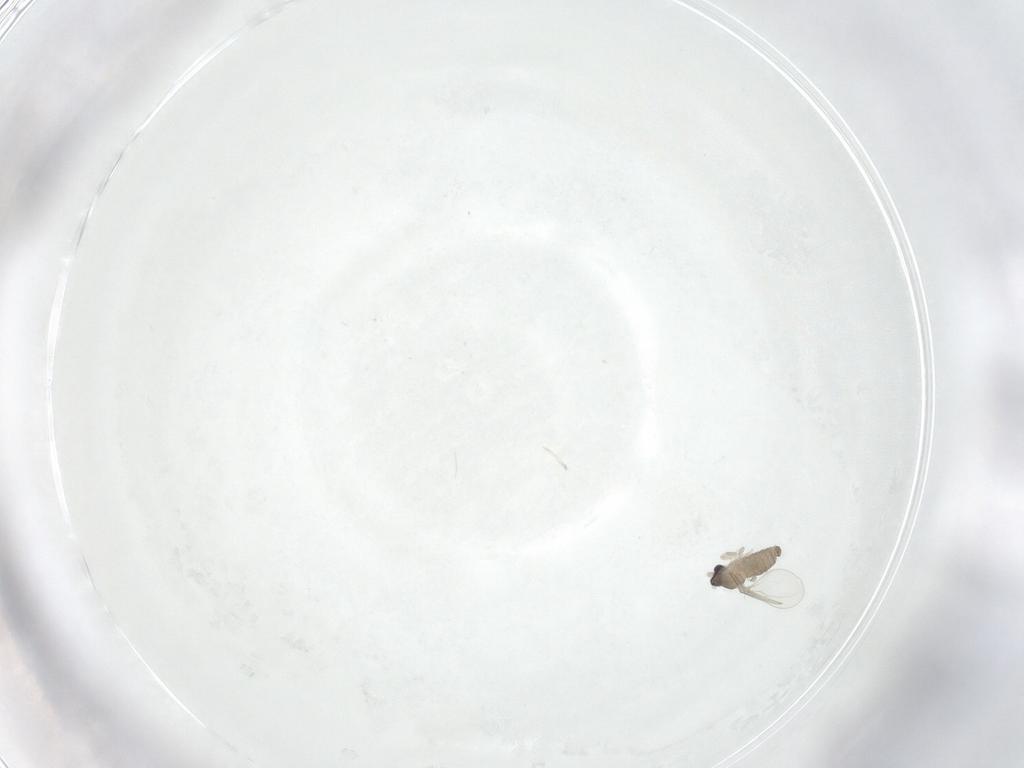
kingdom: Animalia
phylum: Arthropoda
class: Insecta
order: Diptera
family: Cecidomyiidae
